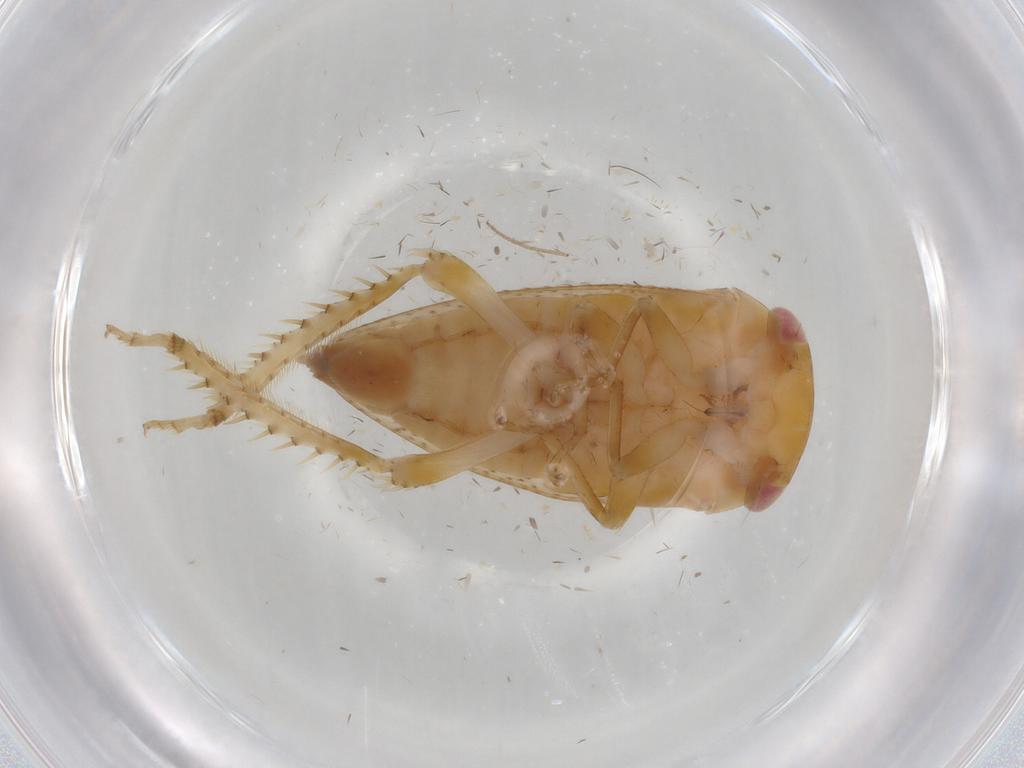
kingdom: Animalia
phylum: Arthropoda
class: Insecta
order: Hemiptera
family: Cicadellidae
